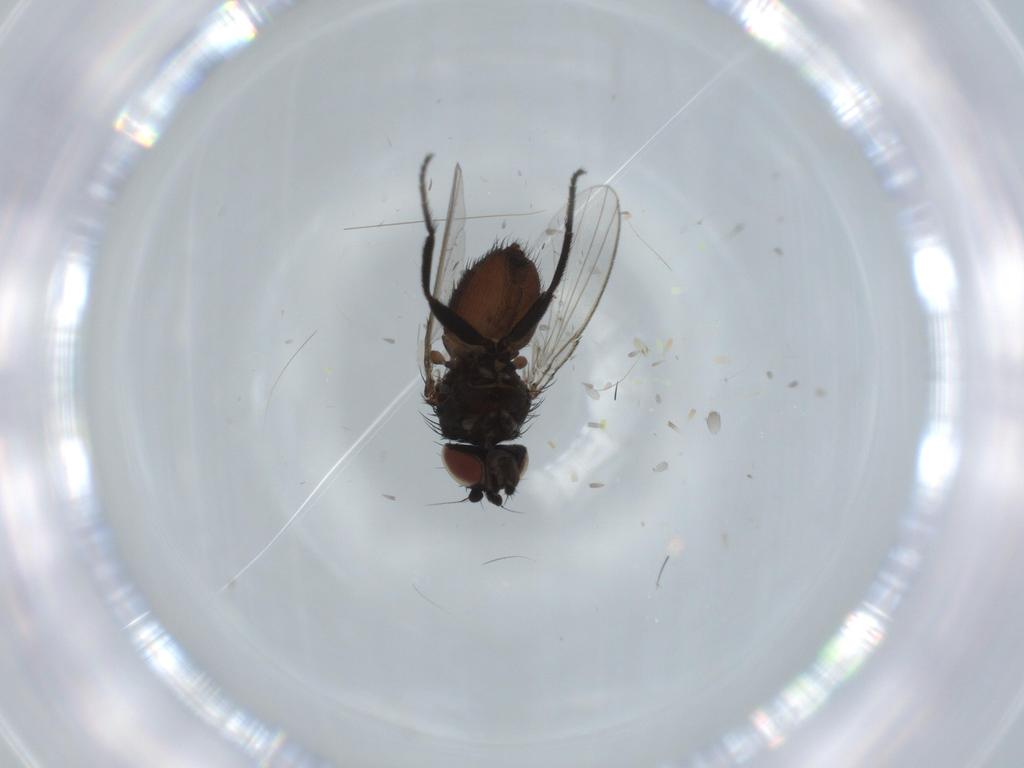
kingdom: Animalia
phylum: Arthropoda
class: Insecta
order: Diptera
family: Milichiidae
